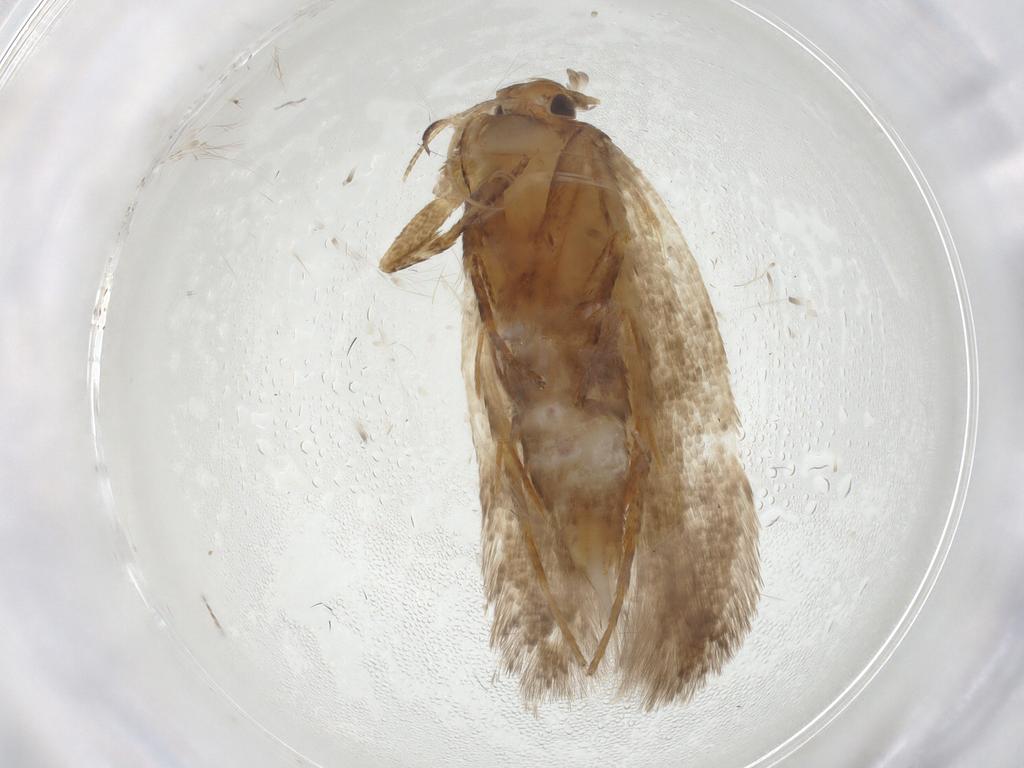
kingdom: Animalia
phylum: Arthropoda
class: Insecta
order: Lepidoptera
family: Gelechiidae
